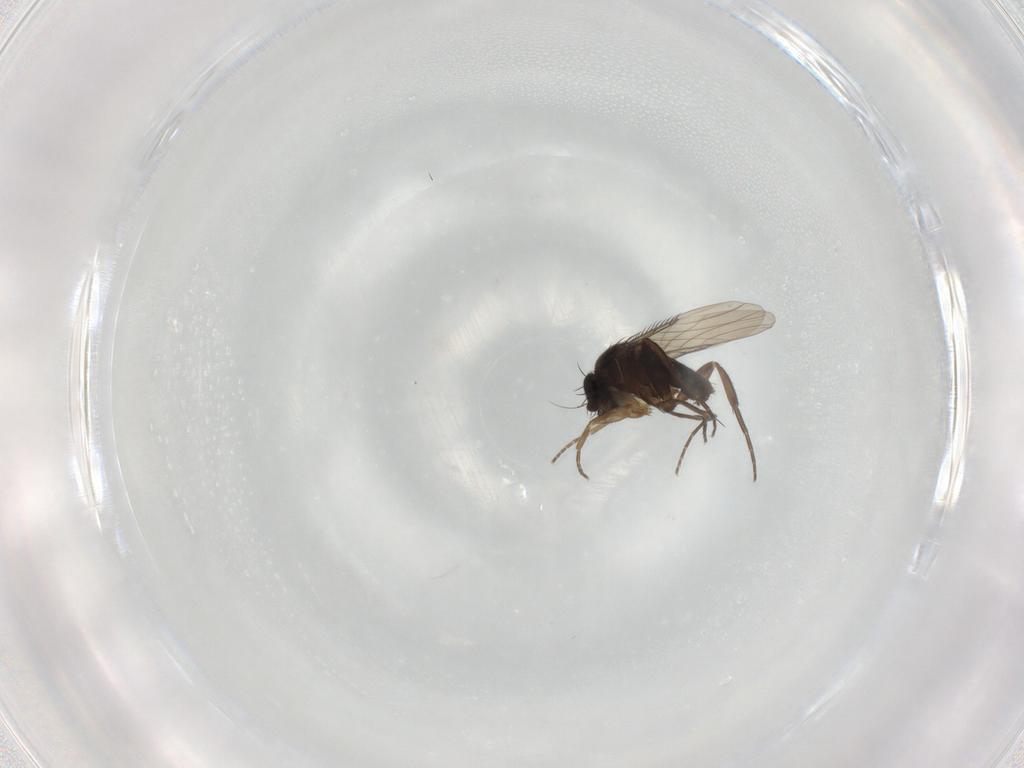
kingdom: Animalia
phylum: Arthropoda
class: Insecta
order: Diptera
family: Phoridae
